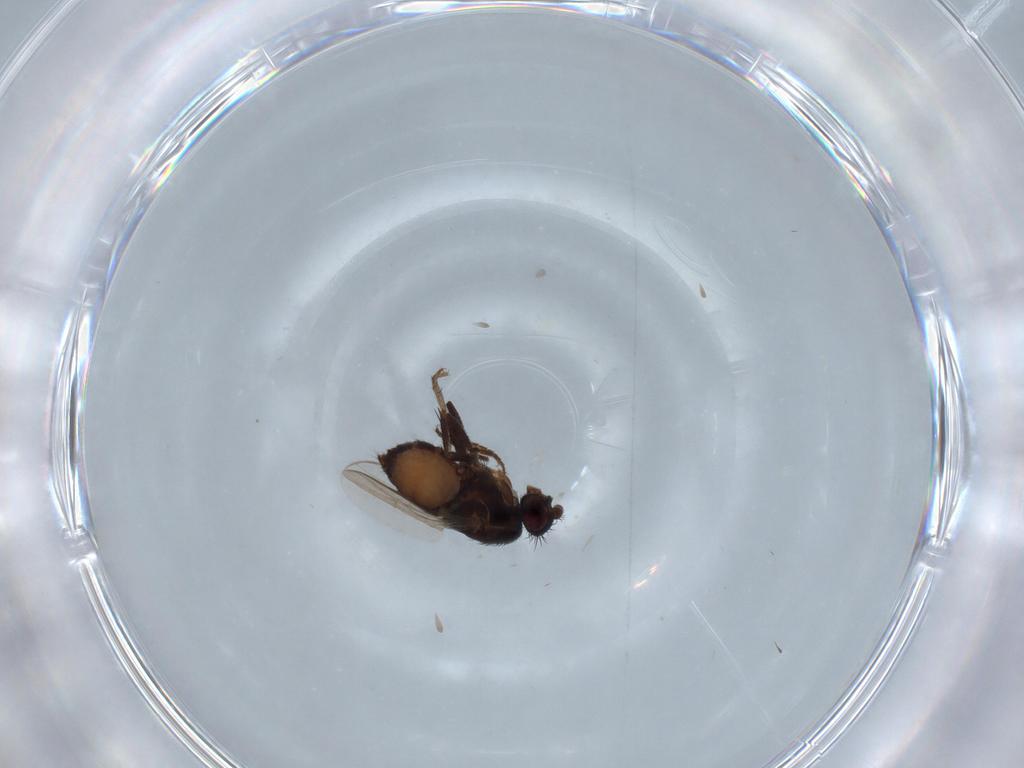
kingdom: Animalia
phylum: Arthropoda
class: Insecta
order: Diptera
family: Sphaeroceridae
